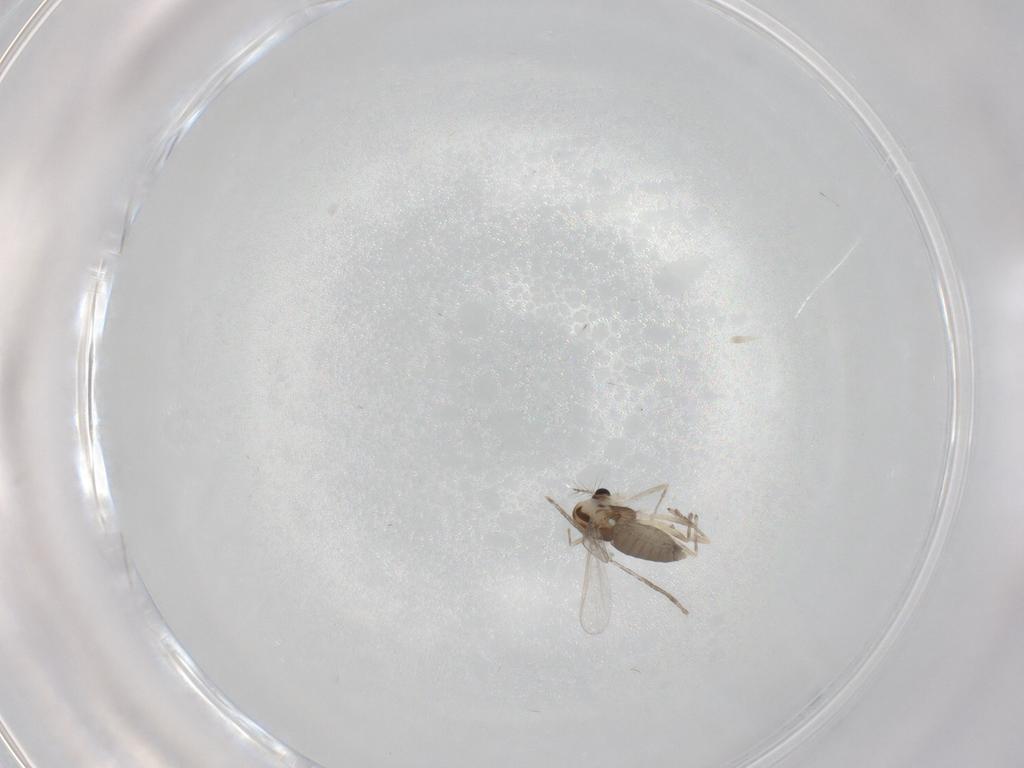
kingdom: Animalia
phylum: Arthropoda
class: Insecta
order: Diptera
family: Chironomidae
